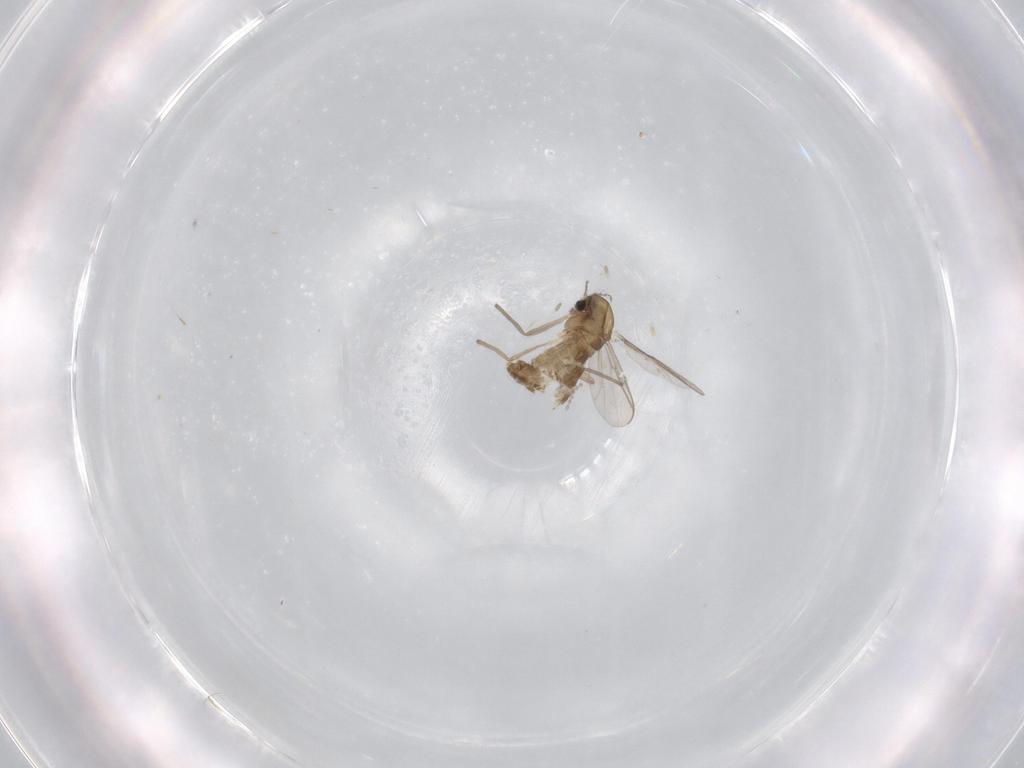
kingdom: Animalia
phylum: Arthropoda
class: Insecta
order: Diptera
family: Chironomidae
